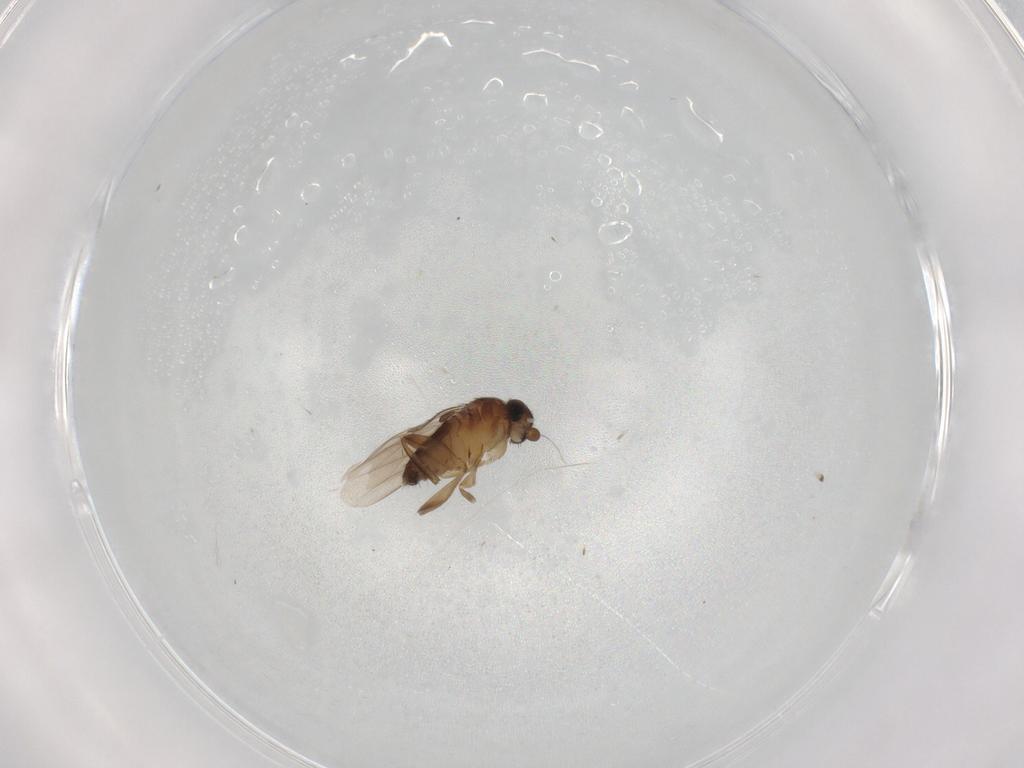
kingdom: Animalia
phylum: Arthropoda
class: Insecta
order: Diptera
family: Phoridae
